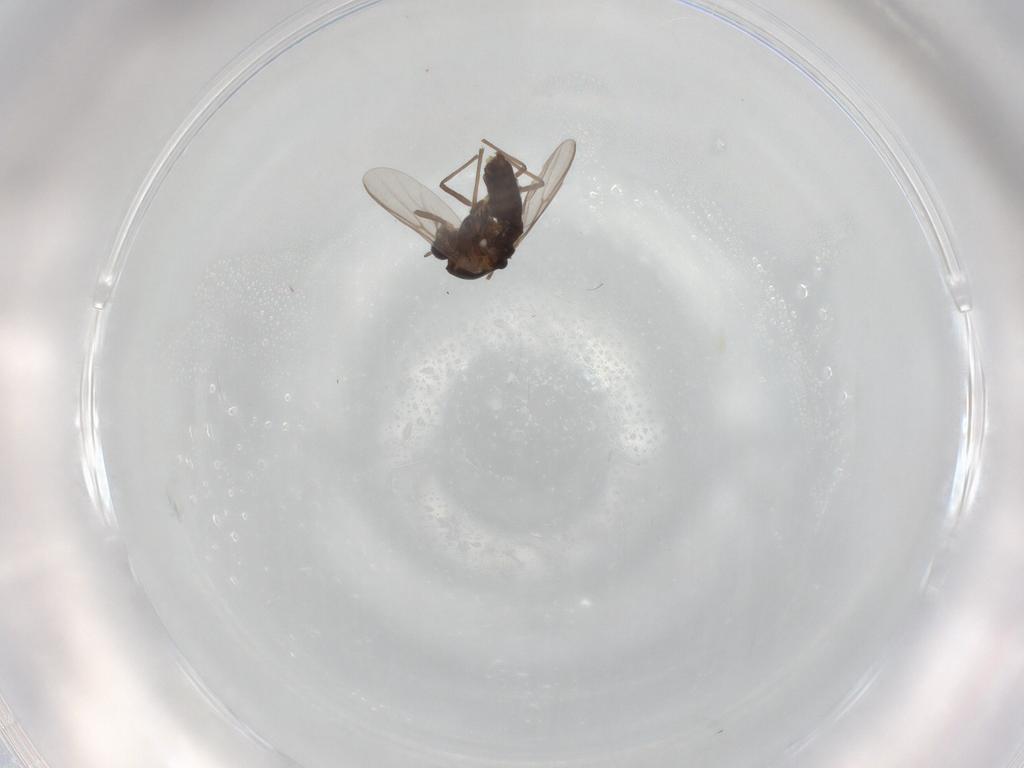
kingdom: Animalia
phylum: Arthropoda
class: Insecta
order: Diptera
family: Chironomidae
